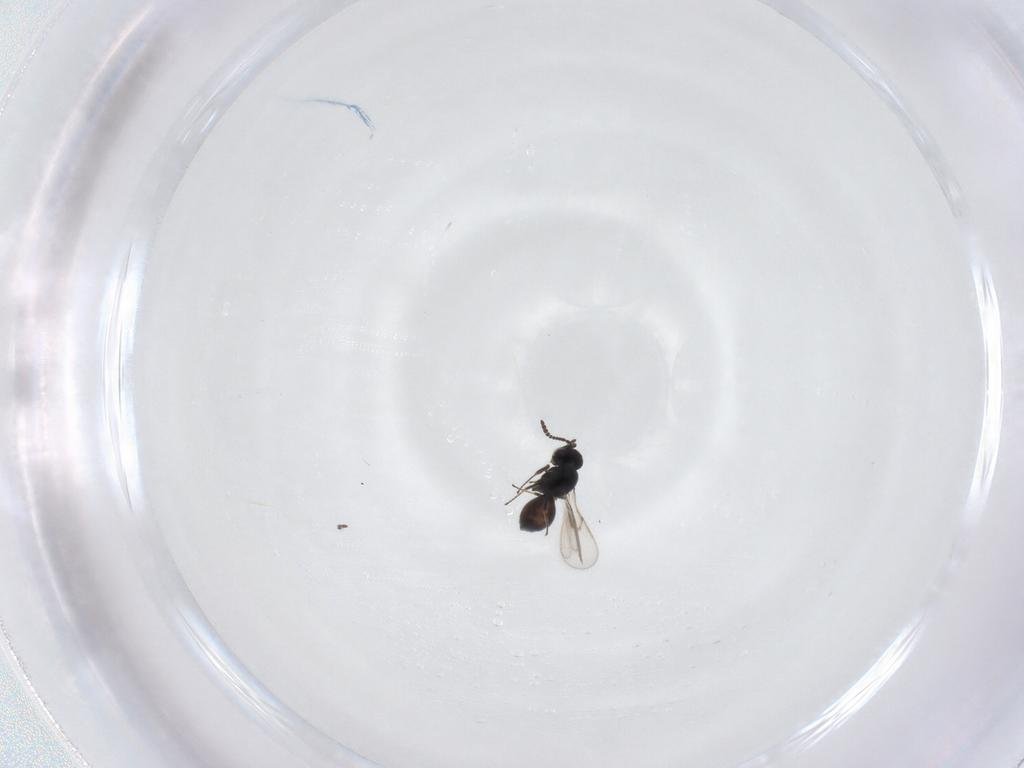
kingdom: Animalia
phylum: Arthropoda
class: Insecta
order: Hymenoptera
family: Scelionidae
